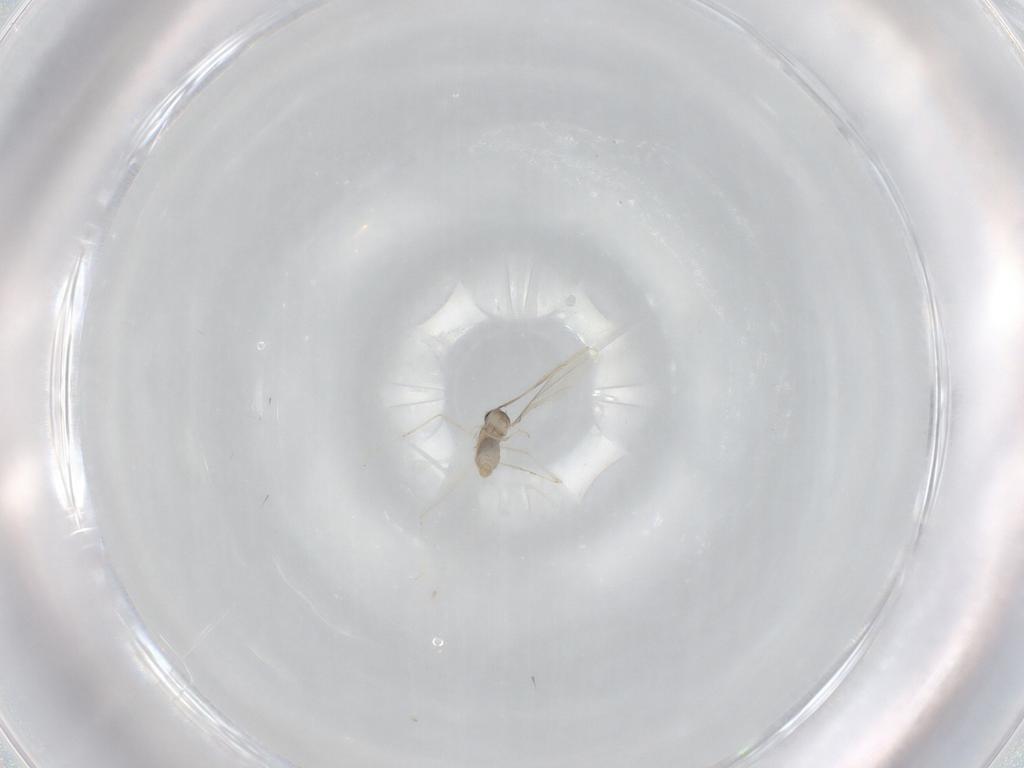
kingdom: Animalia
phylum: Arthropoda
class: Insecta
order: Diptera
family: Cecidomyiidae
